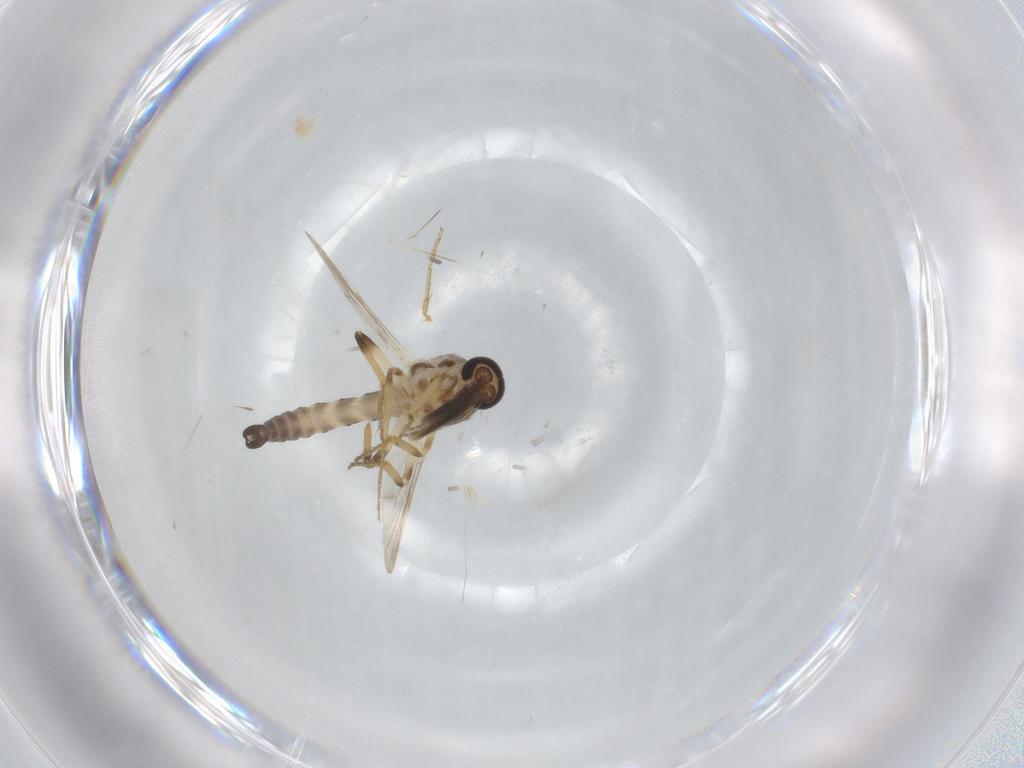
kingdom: Animalia
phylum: Arthropoda
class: Insecta
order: Diptera
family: Ceratopogonidae
